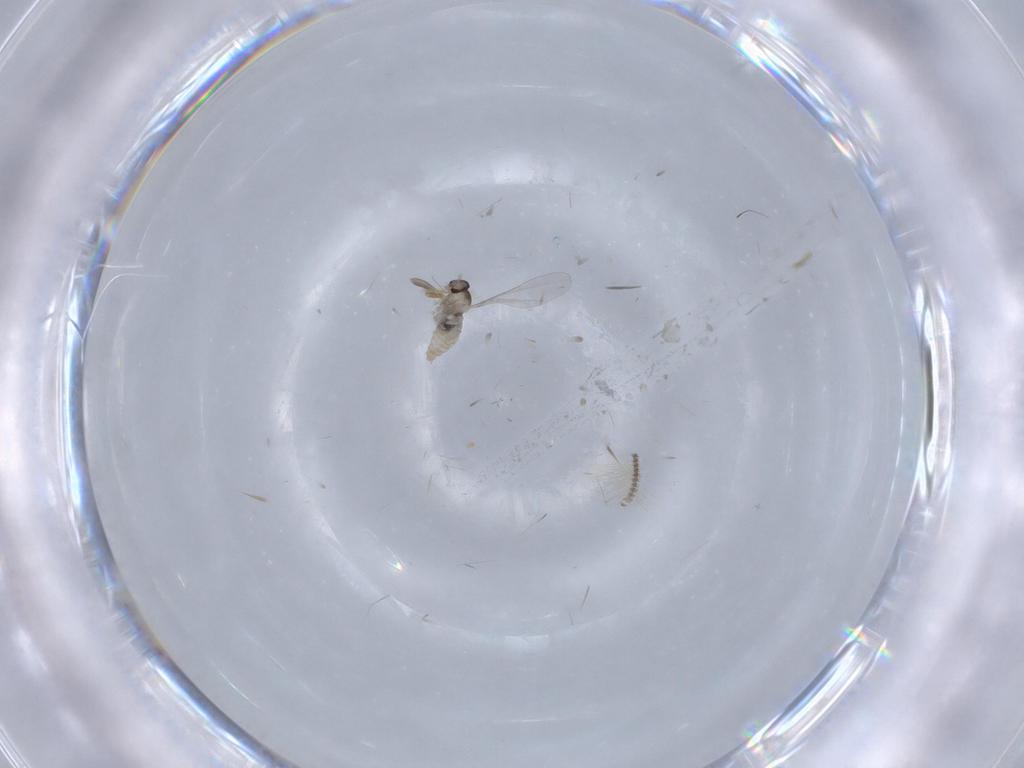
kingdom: Animalia
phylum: Arthropoda
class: Insecta
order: Diptera
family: Cecidomyiidae
